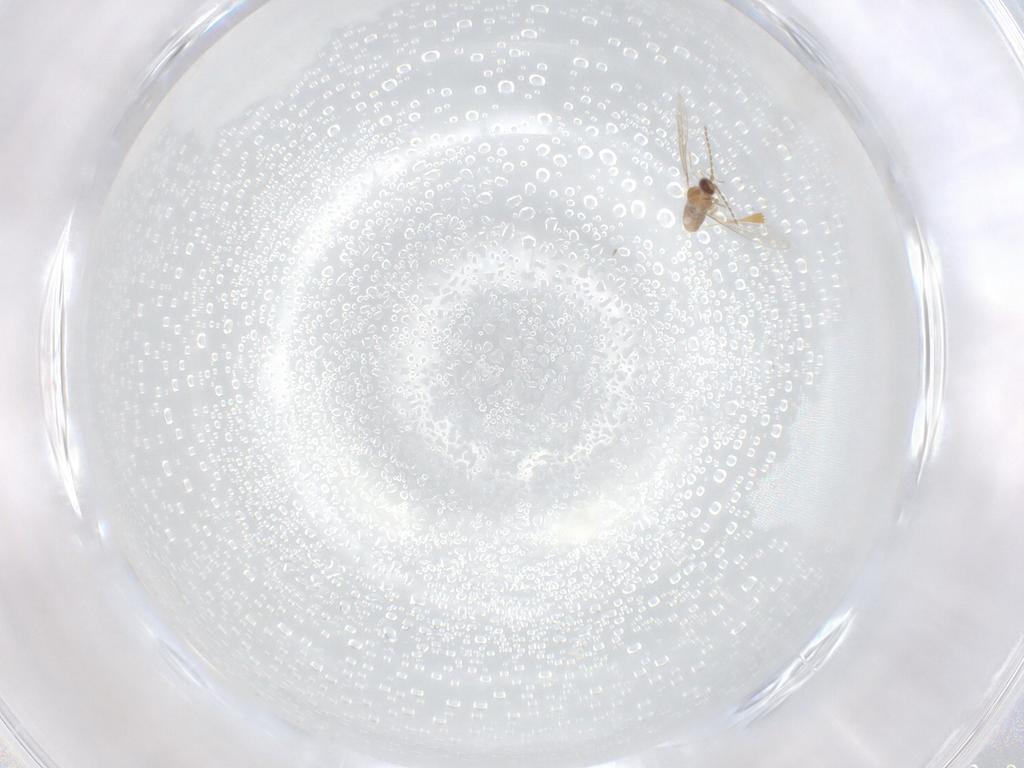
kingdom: Animalia
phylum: Arthropoda
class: Insecta
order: Diptera
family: Cecidomyiidae
